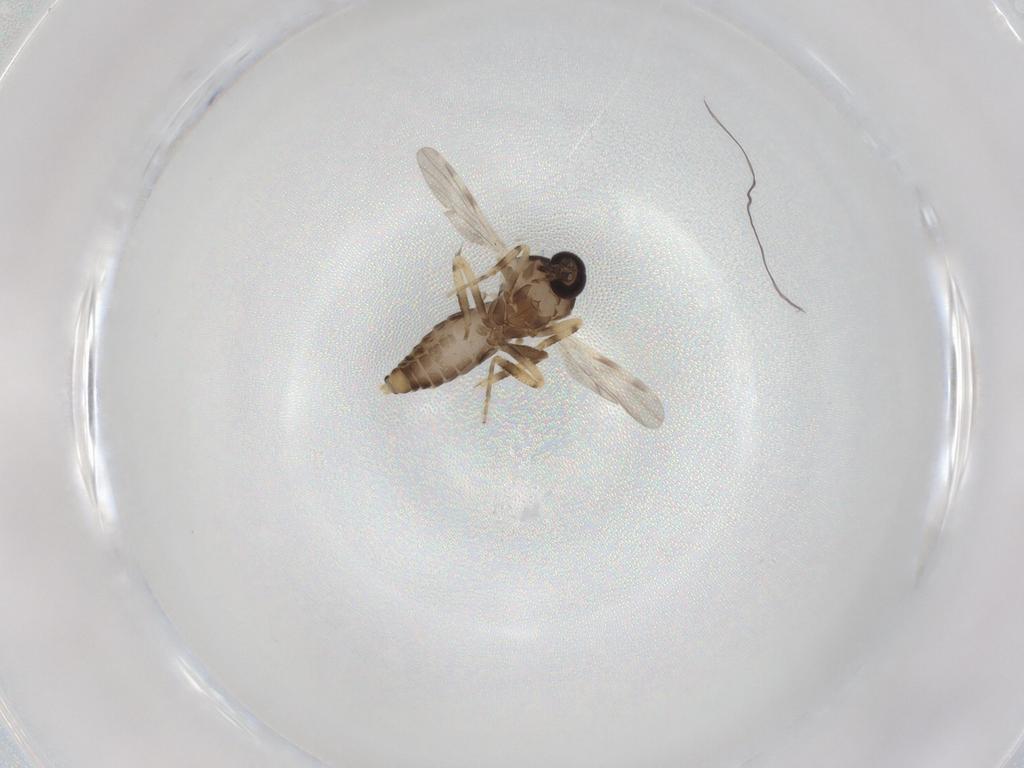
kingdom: Animalia
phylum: Arthropoda
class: Insecta
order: Diptera
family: Ceratopogonidae
